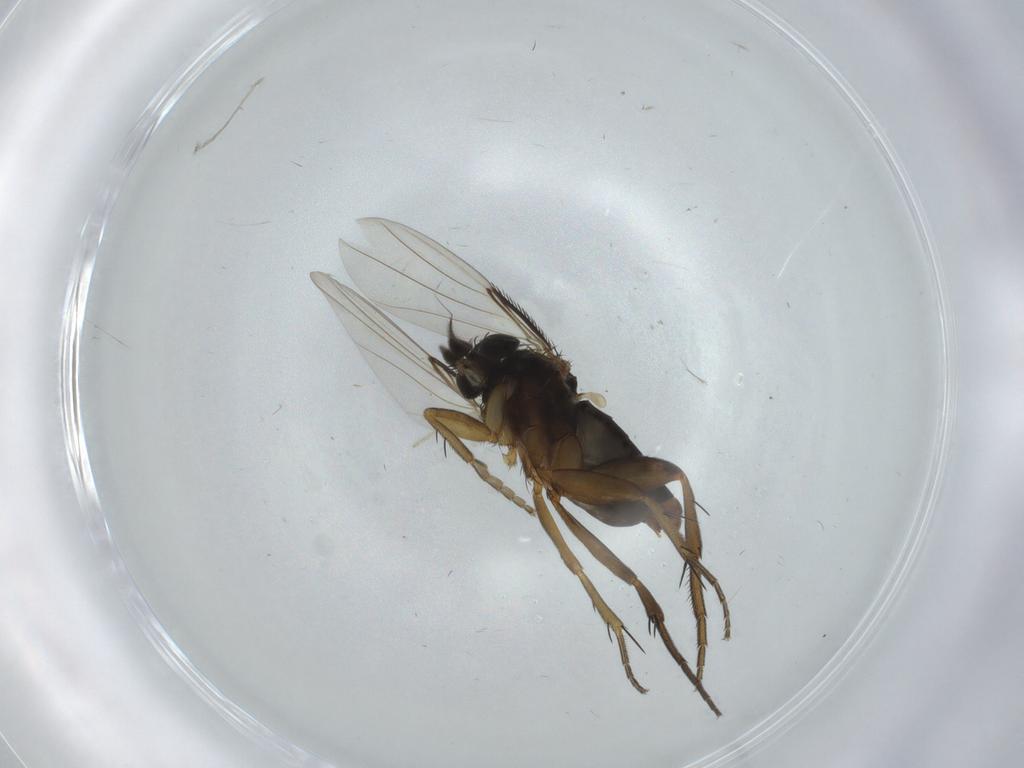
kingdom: Animalia
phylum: Arthropoda
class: Insecta
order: Diptera
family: Phoridae
